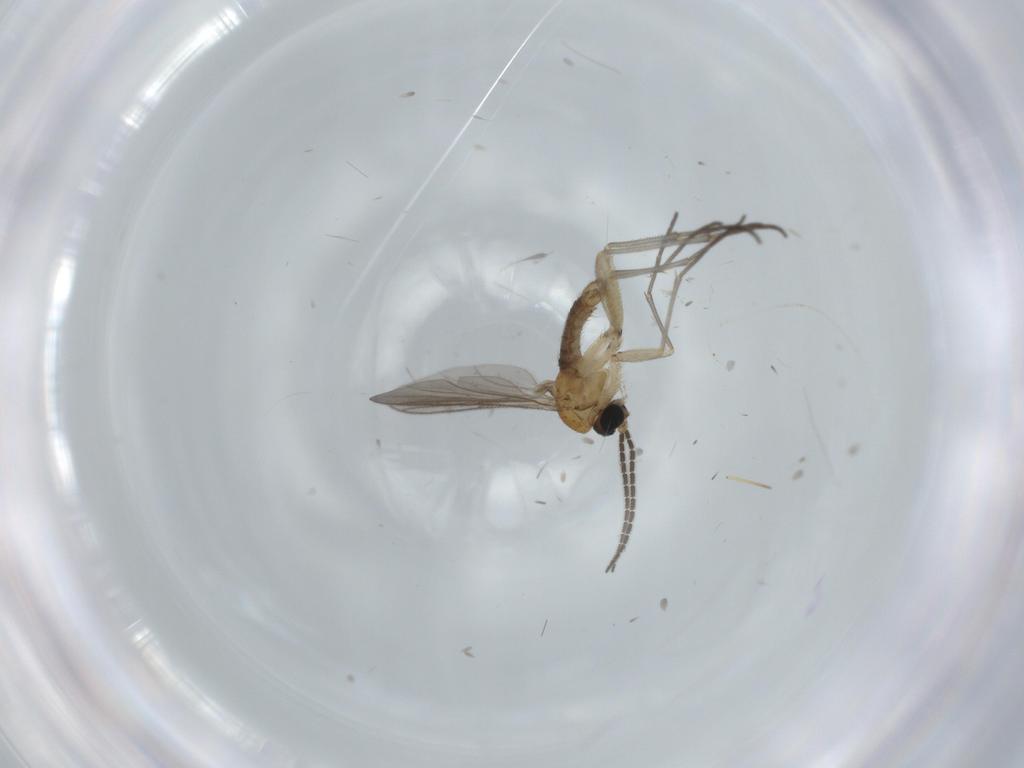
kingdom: Animalia
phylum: Arthropoda
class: Insecta
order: Diptera
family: Sciaridae
